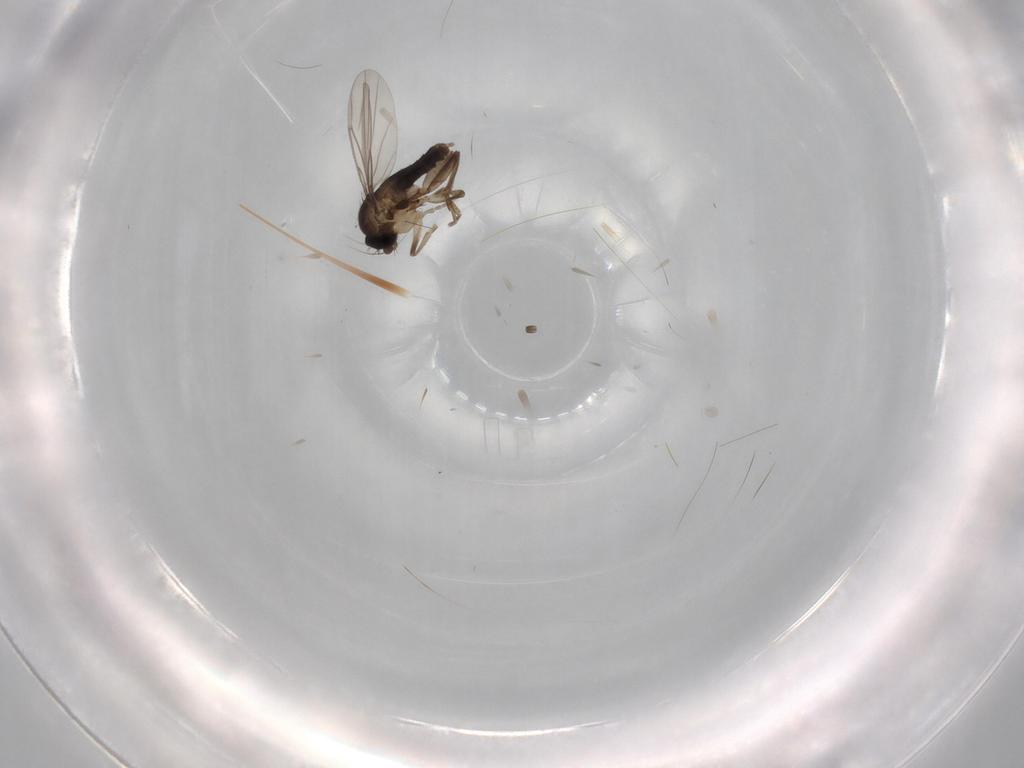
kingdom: Animalia
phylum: Arthropoda
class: Insecta
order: Diptera
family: Phoridae
